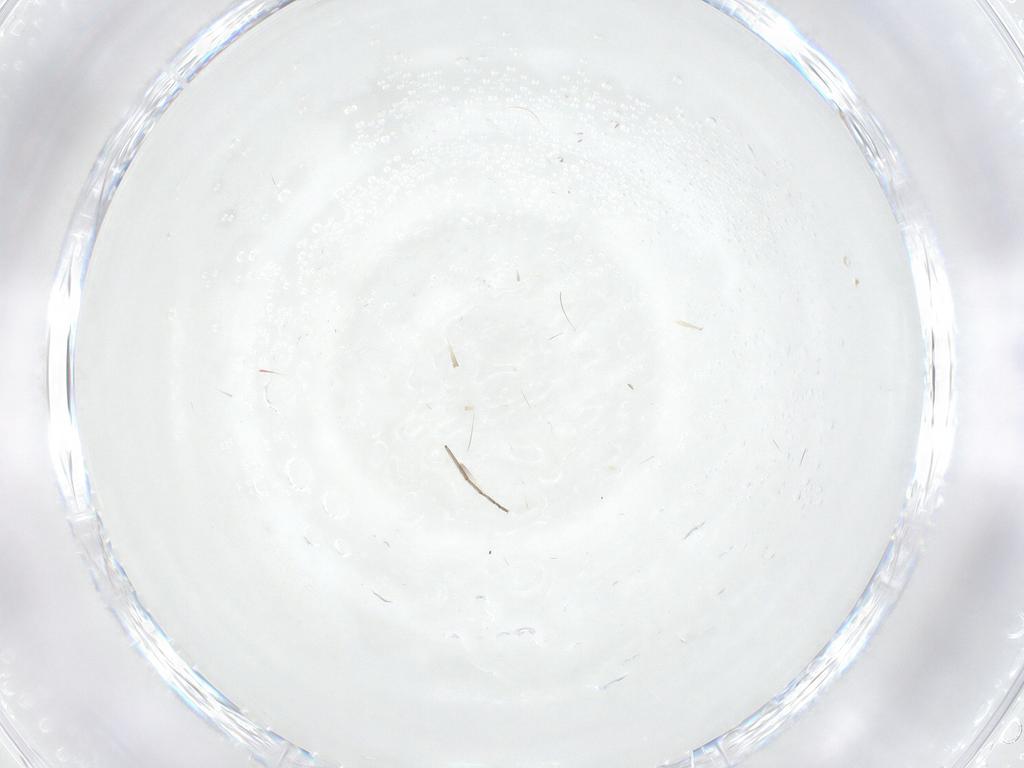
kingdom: Animalia
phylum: Arthropoda
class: Insecta
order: Diptera
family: Chironomidae
